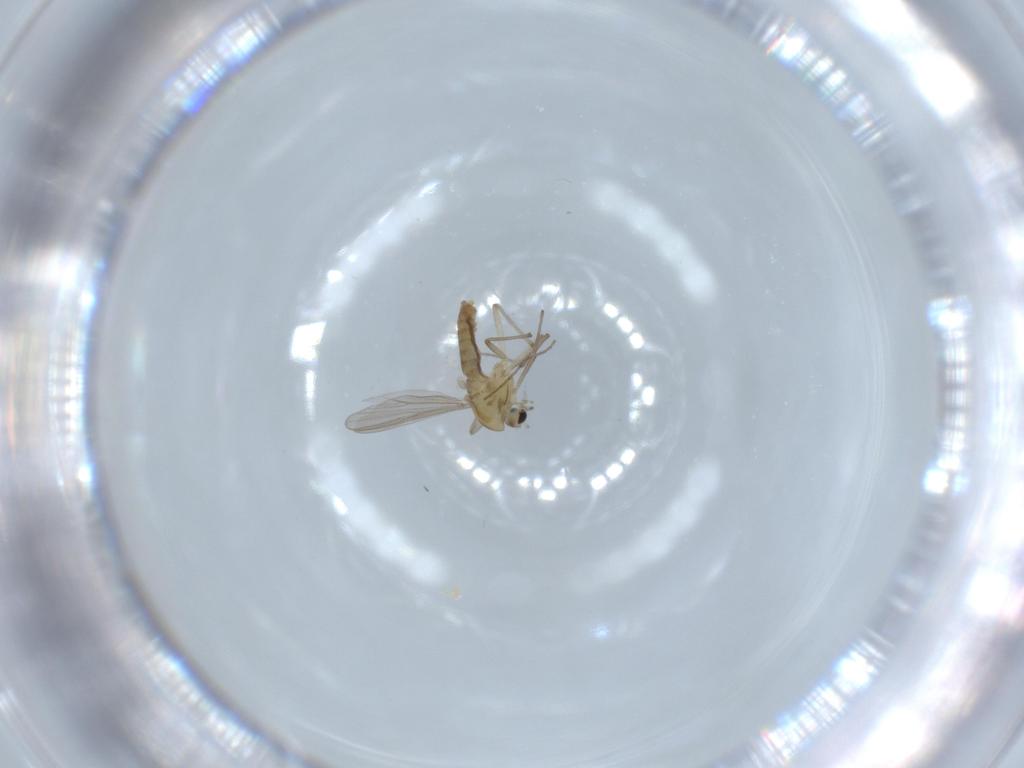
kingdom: Animalia
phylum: Arthropoda
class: Insecta
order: Diptera
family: Chironomidae
